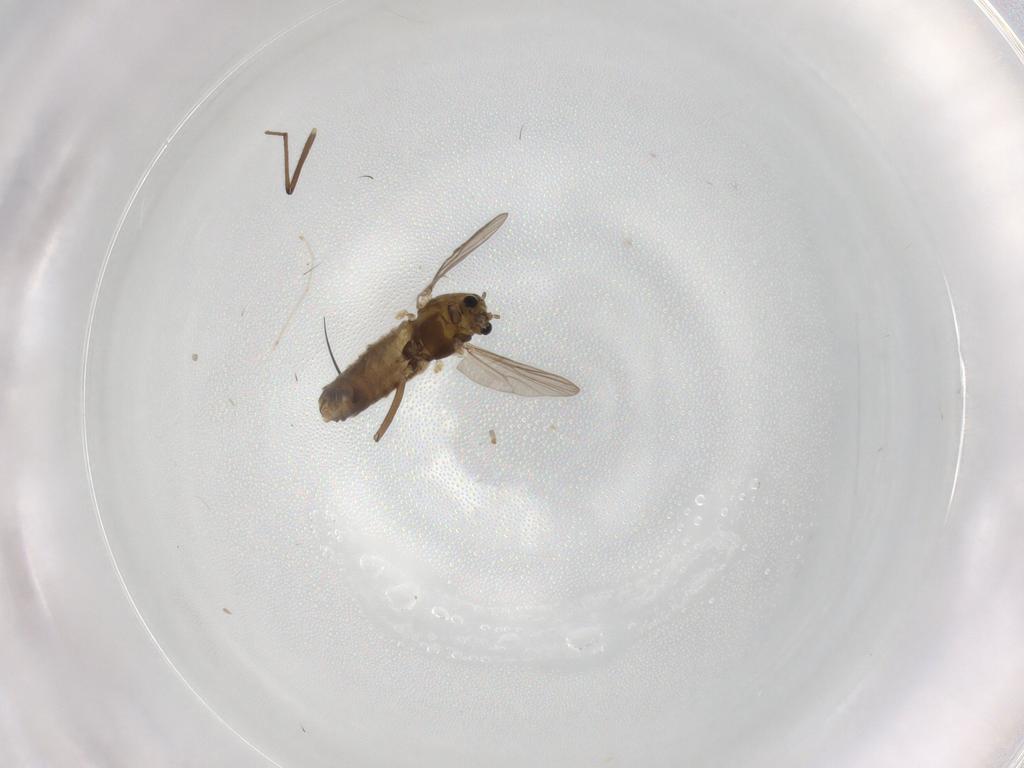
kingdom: Animalia
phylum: Arthropoda
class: Insecta
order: Diptera
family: Chironomidae
